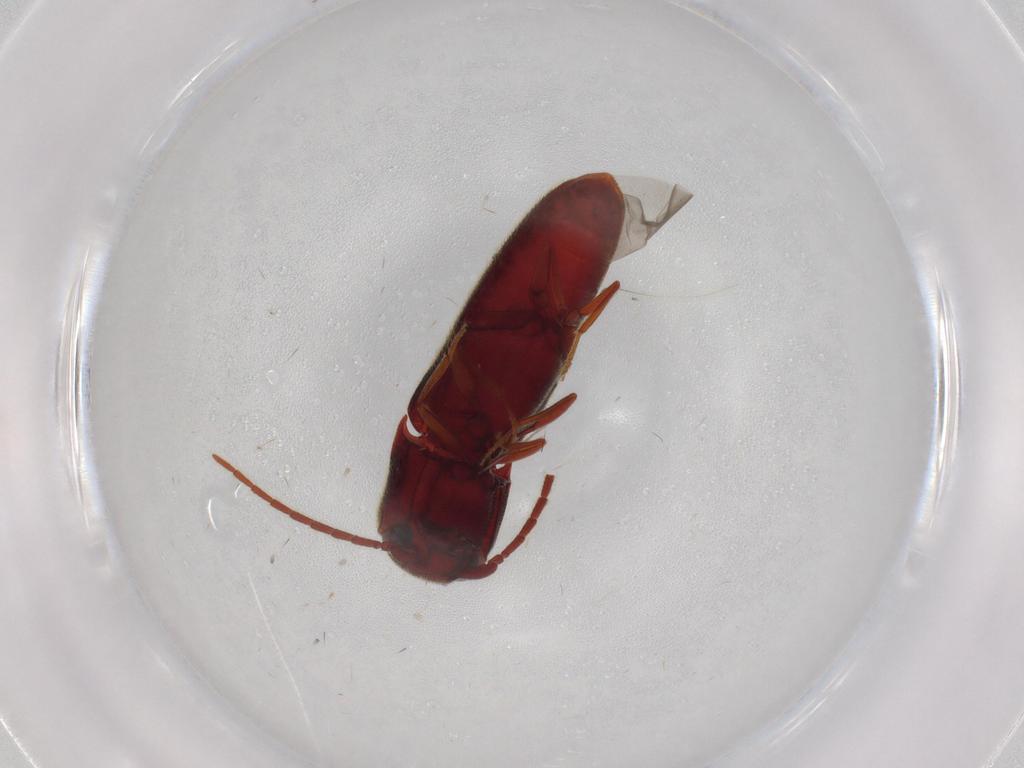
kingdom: Animalia
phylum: Arthropoda
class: Insecta
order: Coleoptera
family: Eucnemidae
